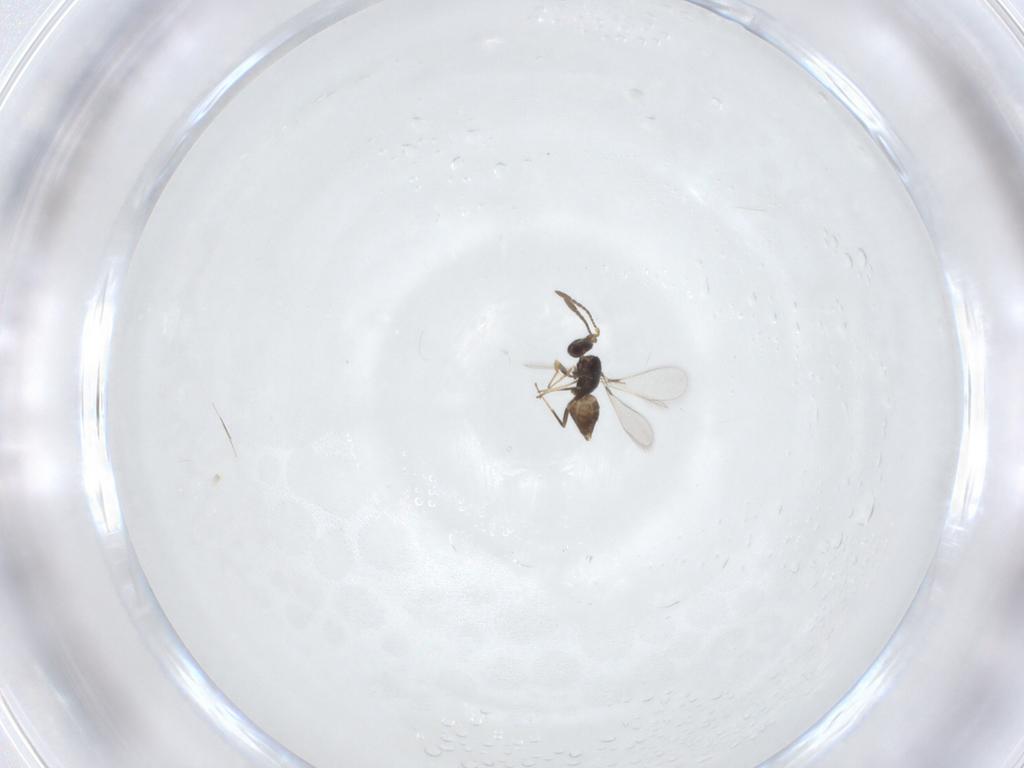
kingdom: Animalia
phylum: Arthropoda
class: Insecta
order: Hymenoptera
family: Mymaridae
